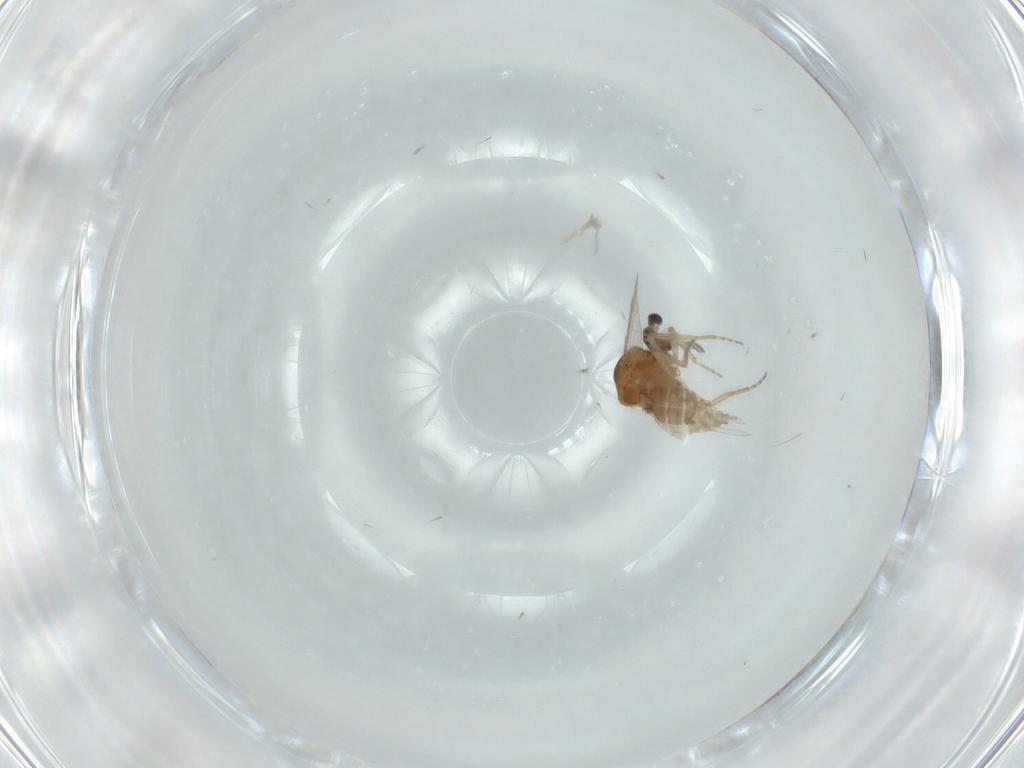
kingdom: Animalia
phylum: Arthropoda
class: Insecta
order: Diptera
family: Ceratopogonidae
